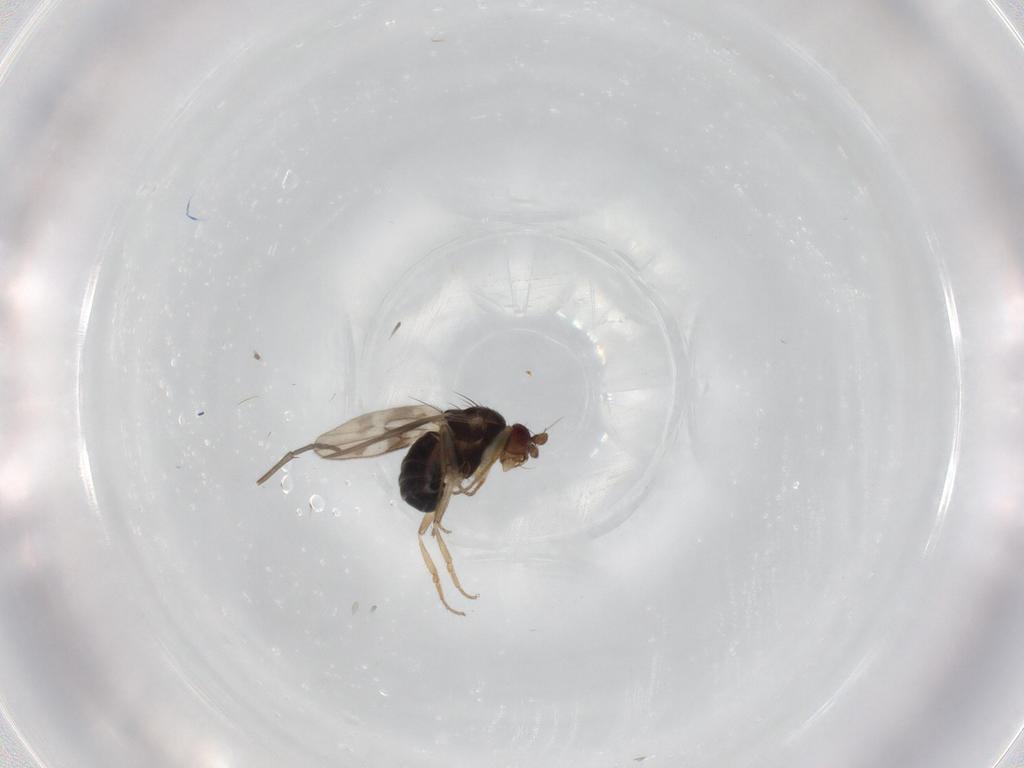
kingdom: Animalia
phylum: Arthropoda
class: Insecta
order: Diptera
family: Sphaeroceridae
